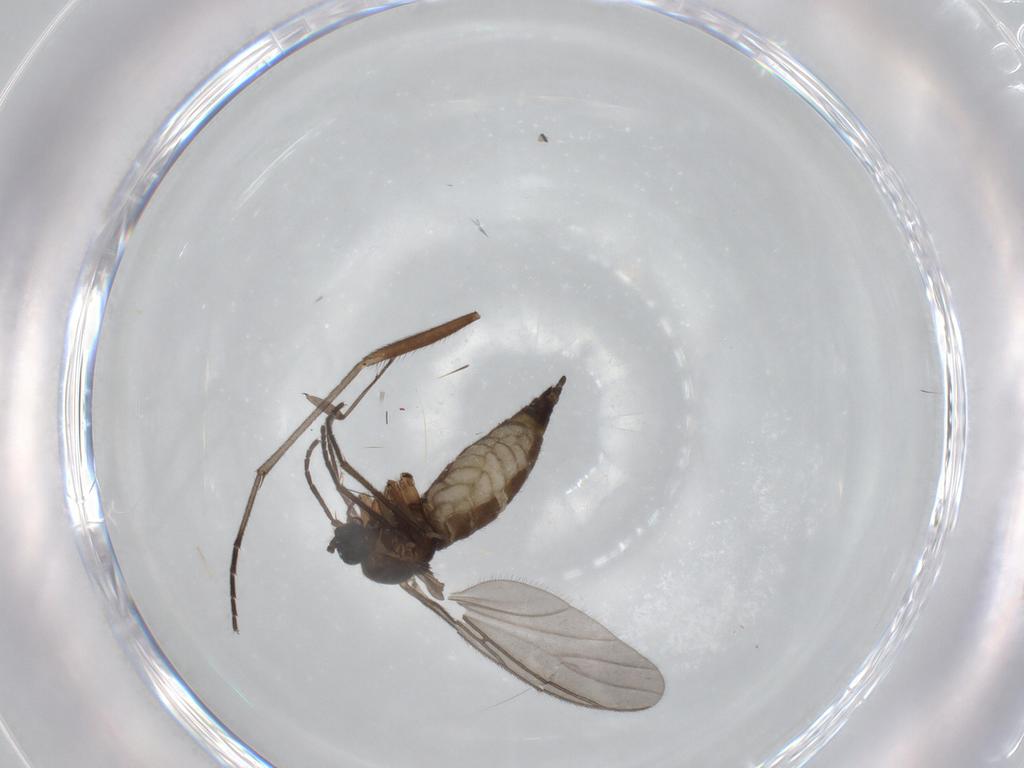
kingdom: Animalia
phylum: Arthropoda
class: Insecta
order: Diptera
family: Sciaridae
